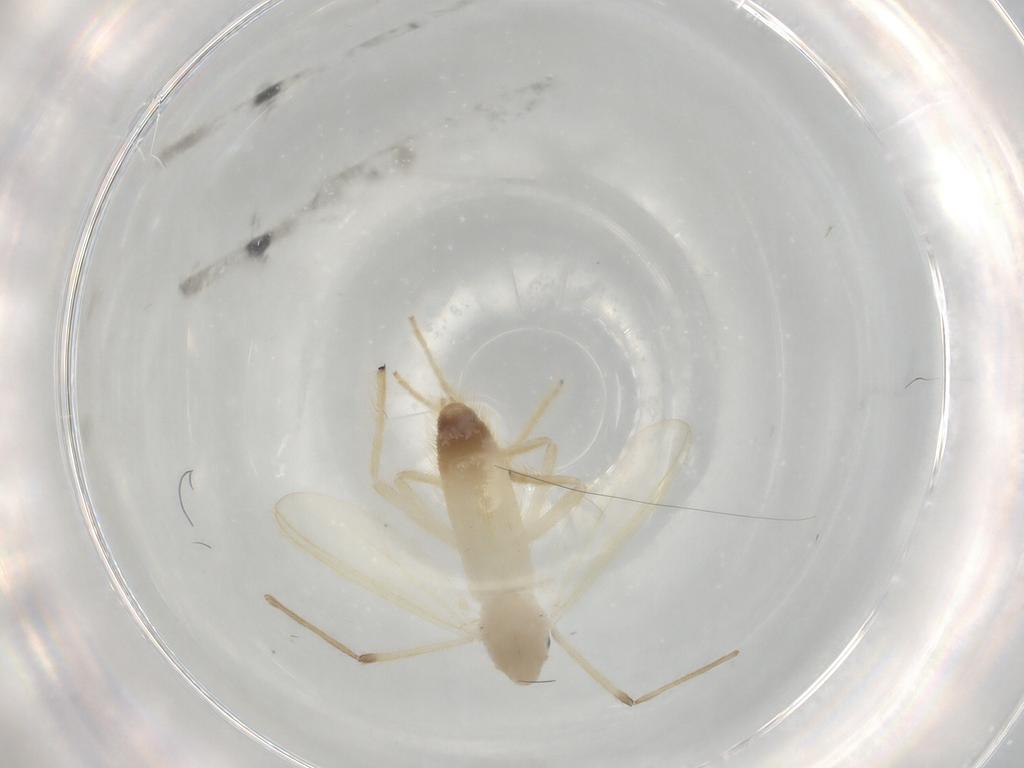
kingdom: Animalia
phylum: Arthropoda
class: Insecta
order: Diptera
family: Chironomidae
